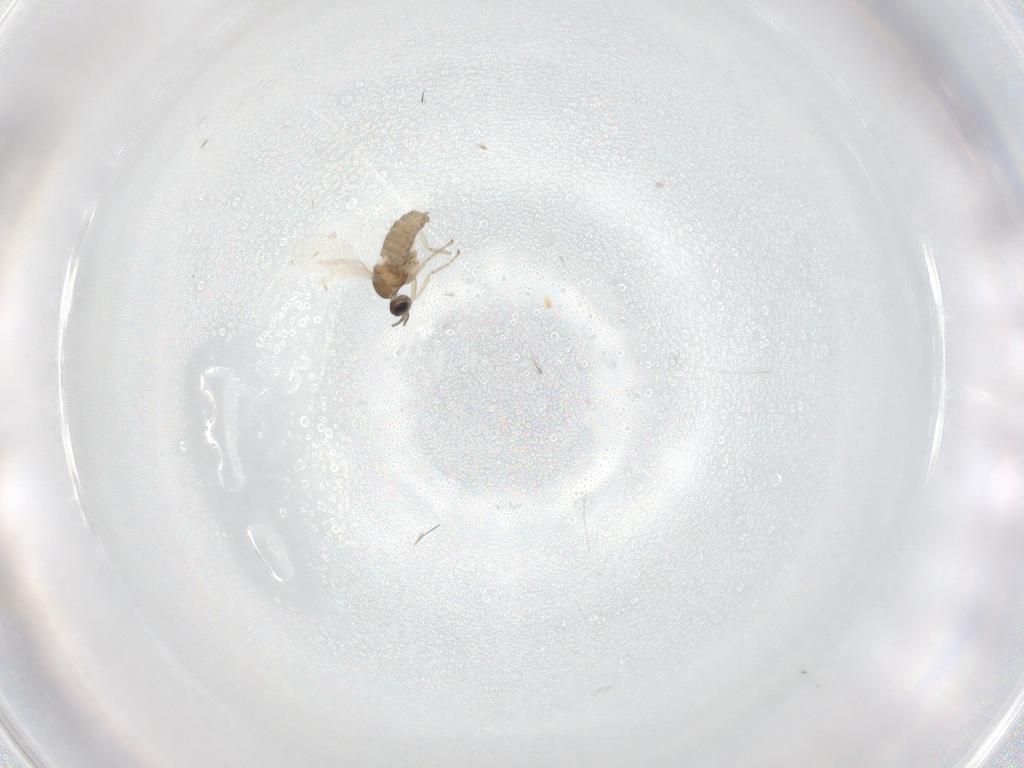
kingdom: Animalia
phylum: Arthropoda
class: Insecta
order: Diptera
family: Cecidomyiidae
